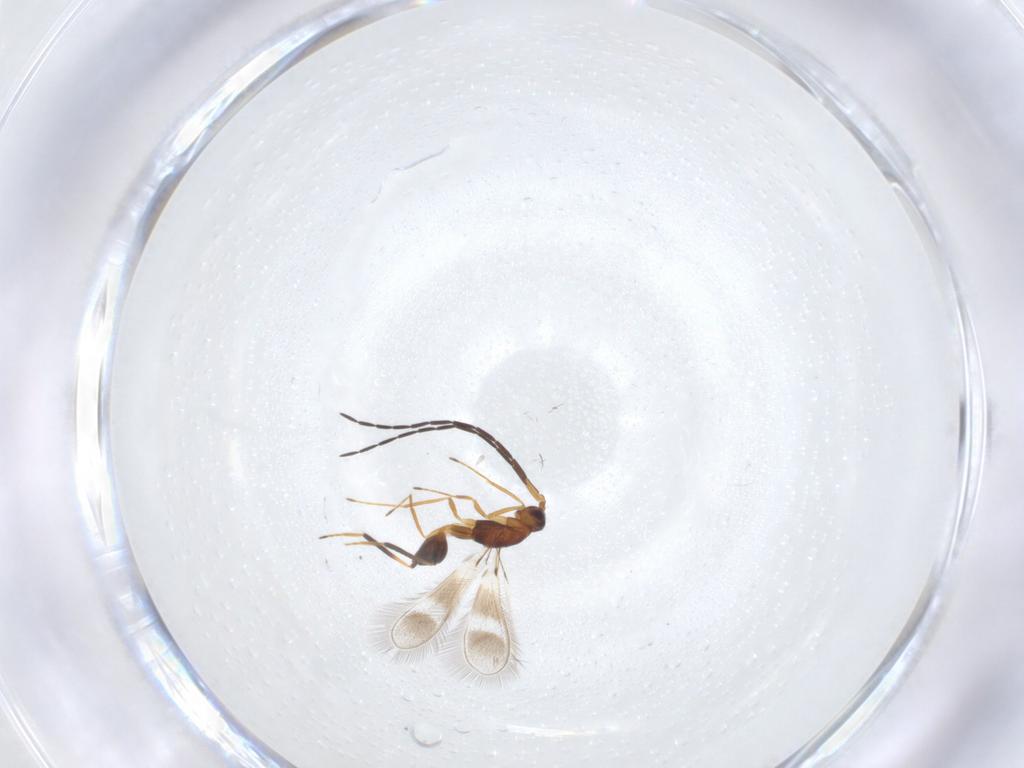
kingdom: Animalia
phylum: Arthropoda
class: Insecta
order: Hymenoptera
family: Mymaridae
